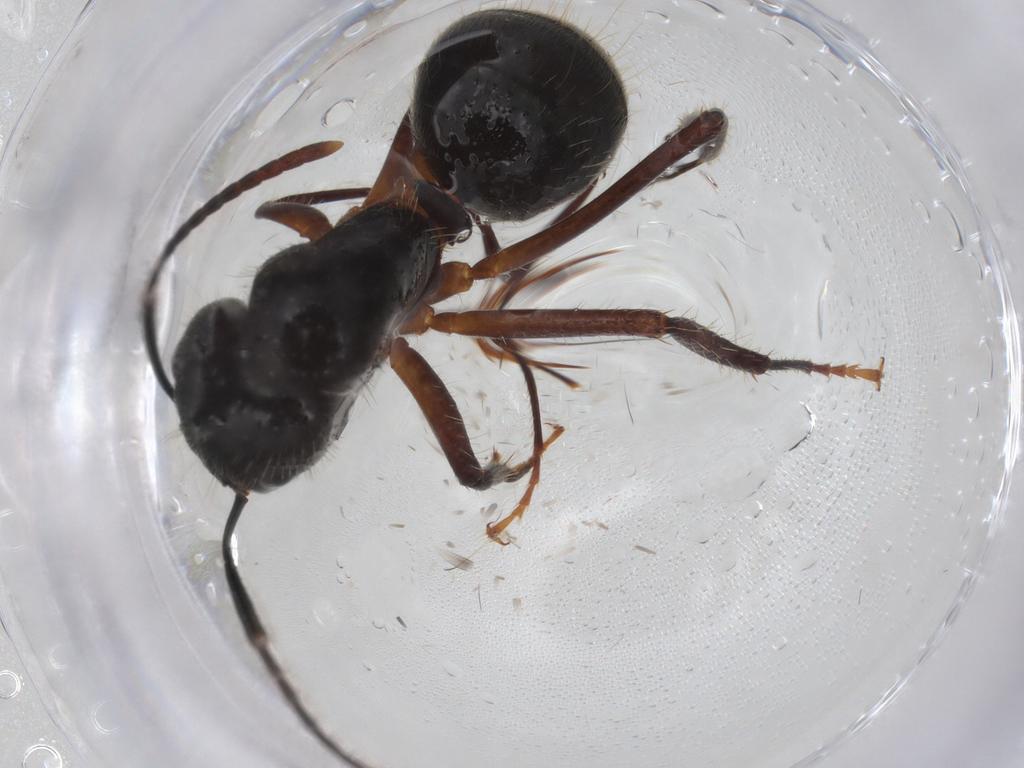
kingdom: Animalia
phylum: Arthropoda
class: Insecta
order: Hymenoptera
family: Formicidae
